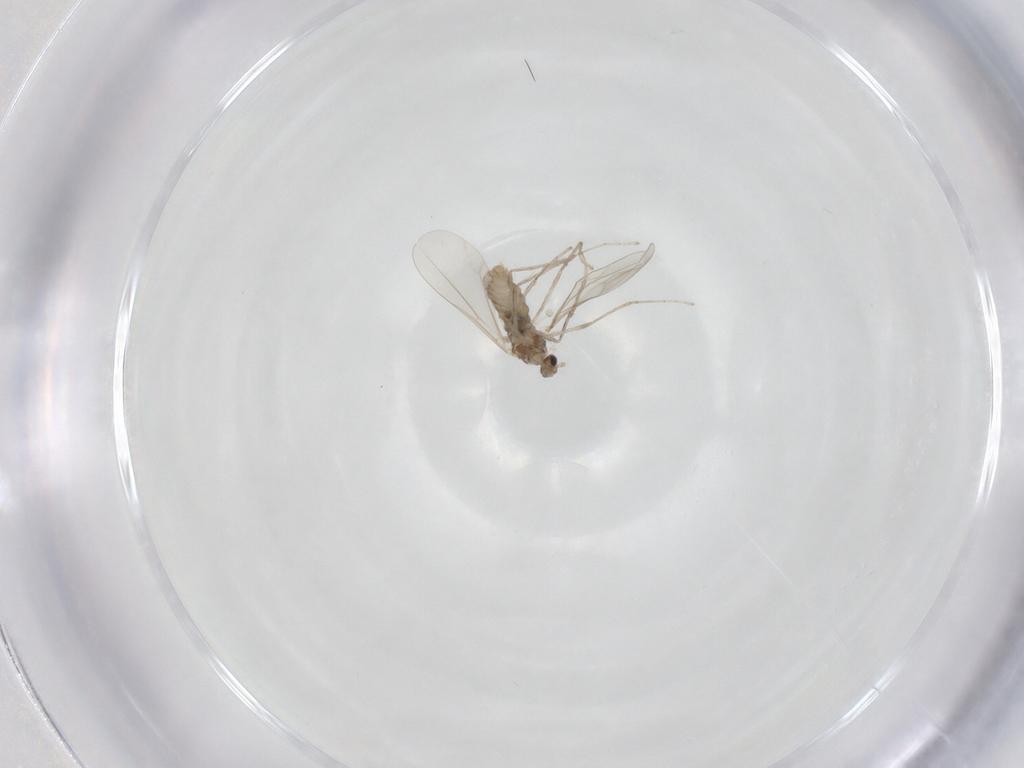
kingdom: Animalia
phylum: Arthropoda
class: Insecta
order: Diptera
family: Cecidomyiidae
